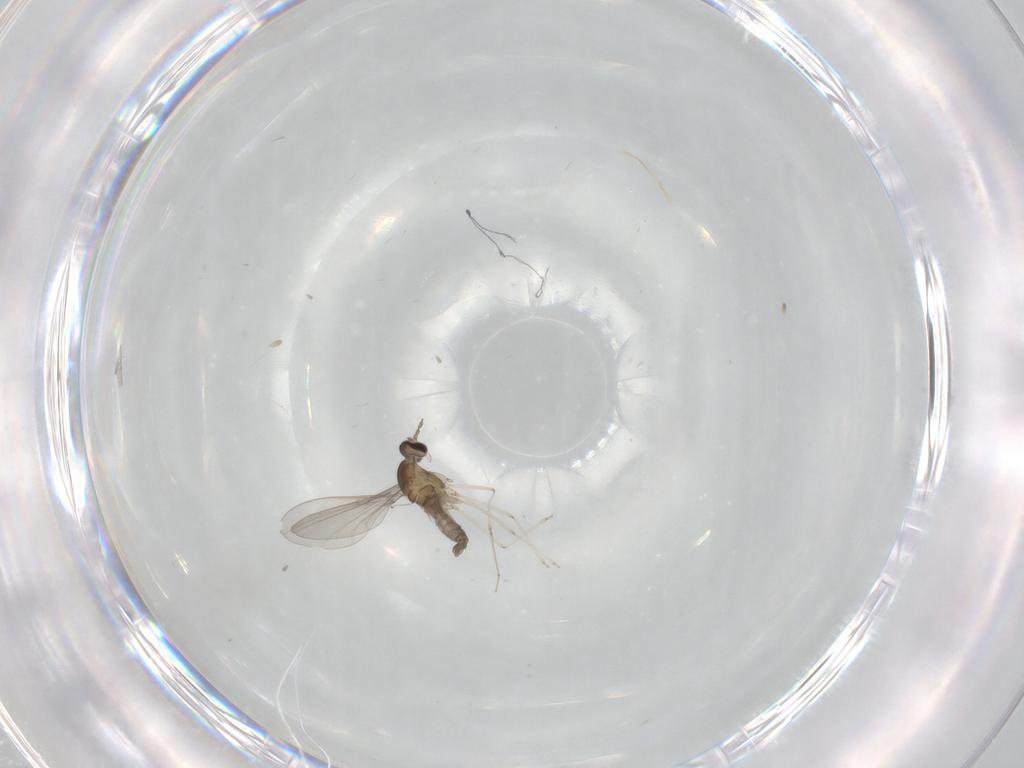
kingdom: Animalia
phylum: Arthropoda
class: Insecta
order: Diptera
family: Cecidomyiidae
